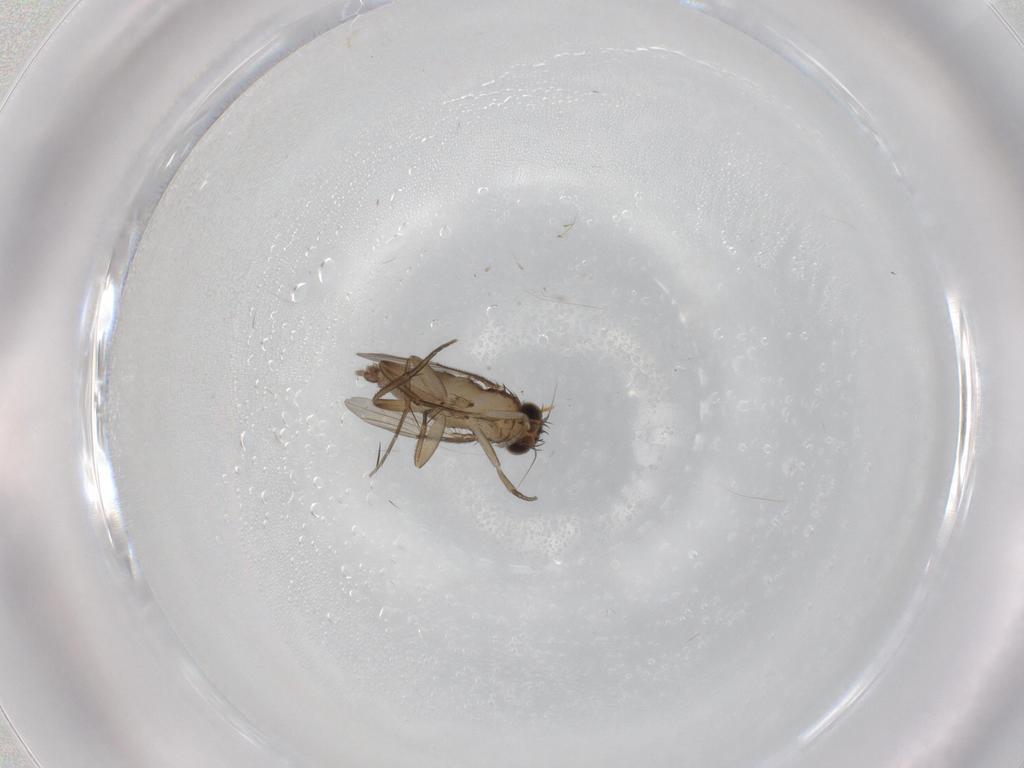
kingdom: Animalia
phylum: Arthropoda
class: Insecta
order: Diptera
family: Phoridae
